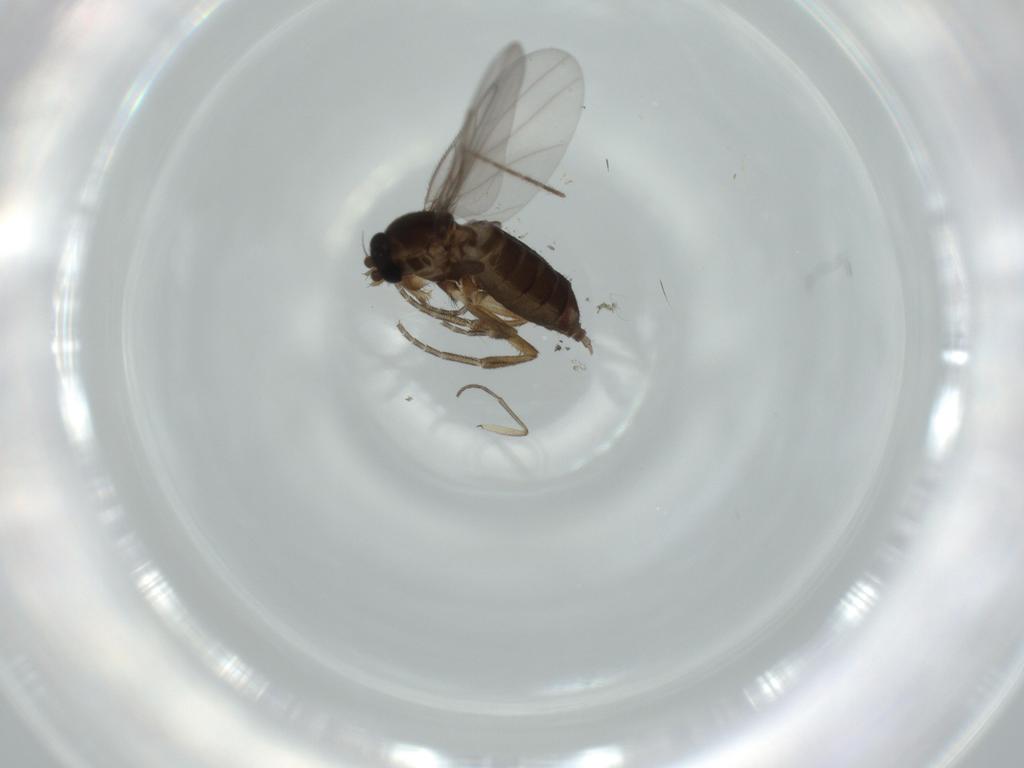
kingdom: Animalia
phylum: Arthropoda
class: Insecta
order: Diptera
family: Phoridae
